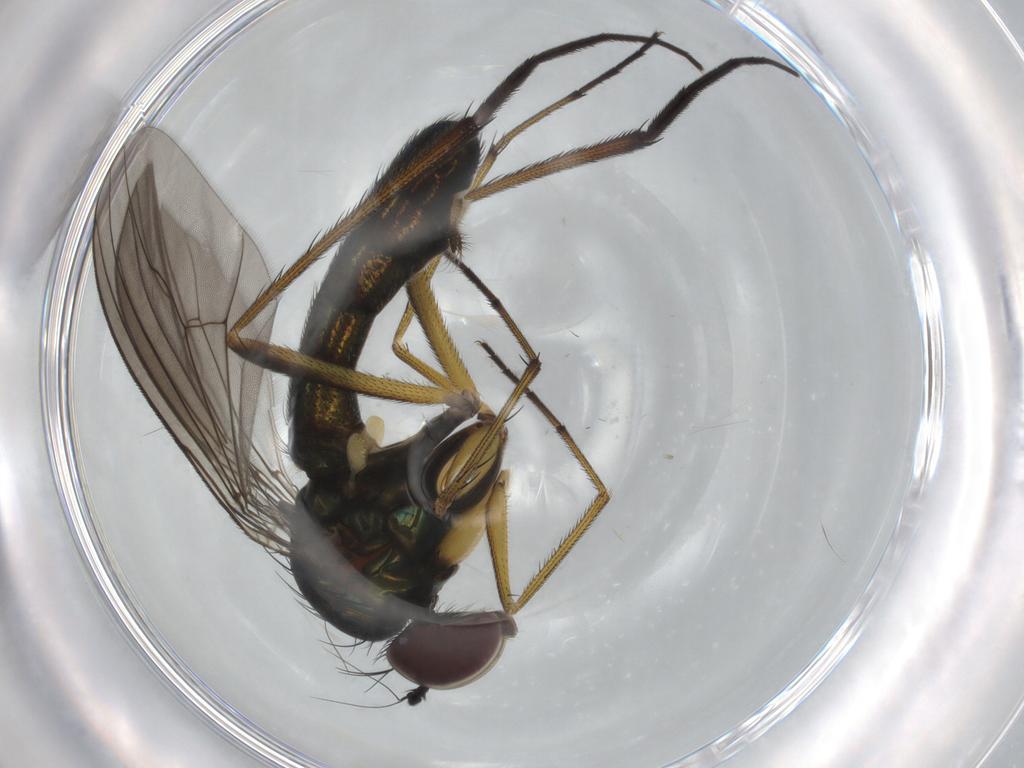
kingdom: Animalia
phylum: Arthropoda
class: Insecta
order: Diptera
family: Dolichopodidae
